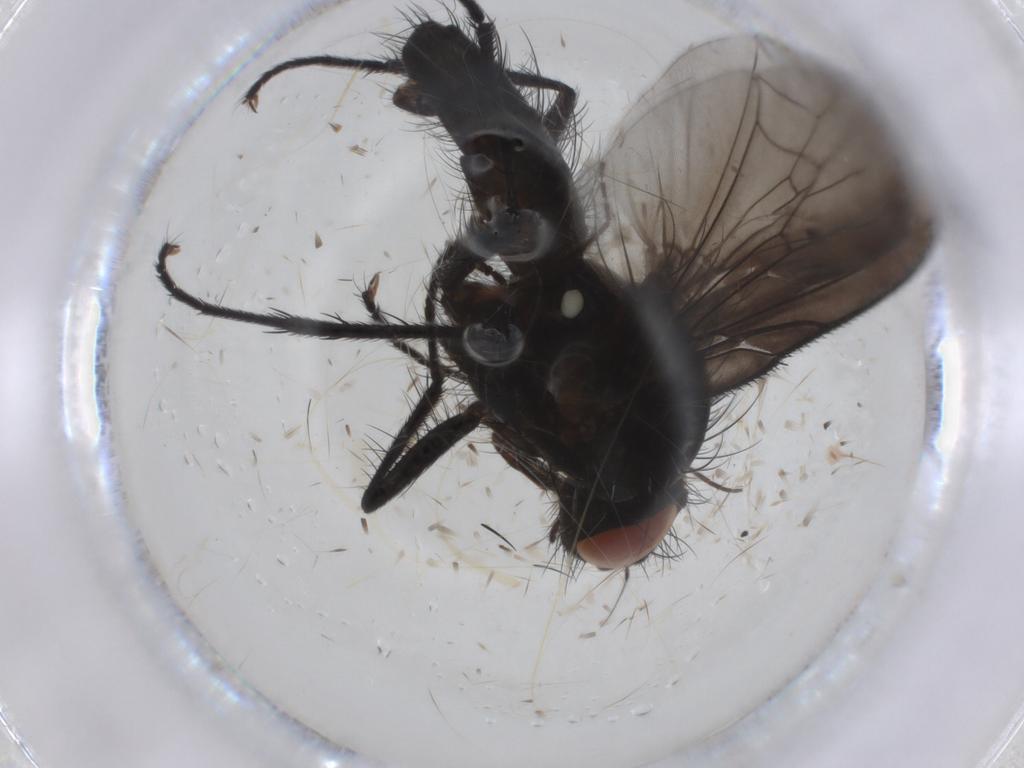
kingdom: Animalia
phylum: Arthropoda
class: Insecta
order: Diptera
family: Anthomyiidae
